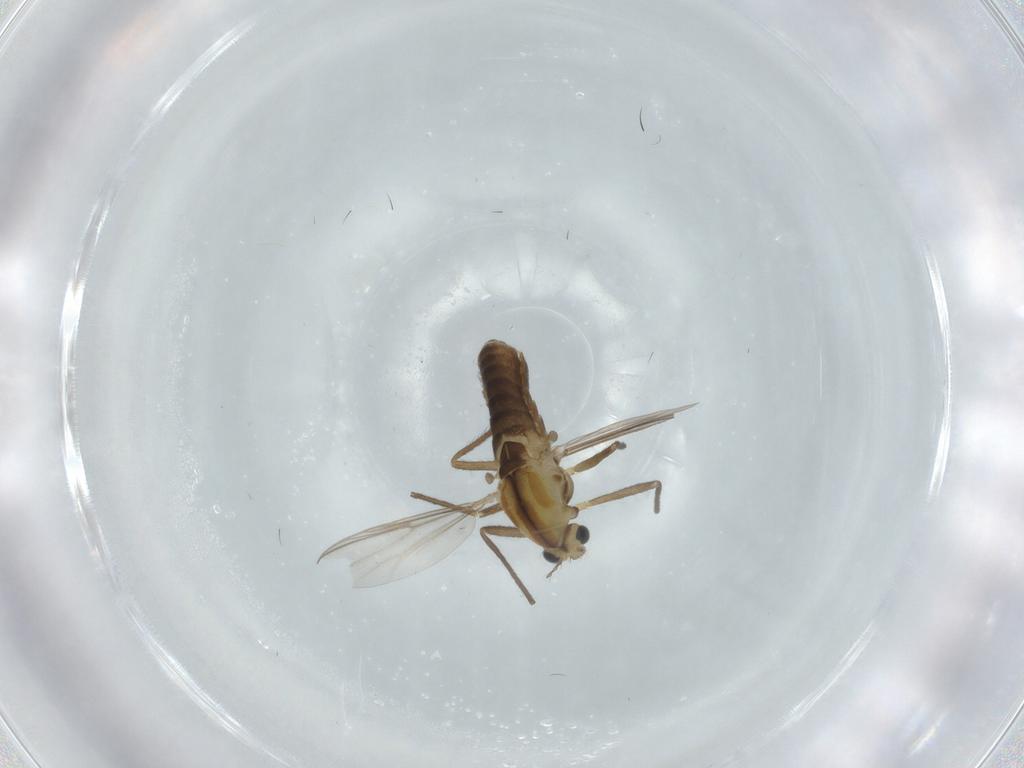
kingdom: Animalia
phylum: Arthropoda
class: Insecta
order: Diptera
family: Chironomidae
